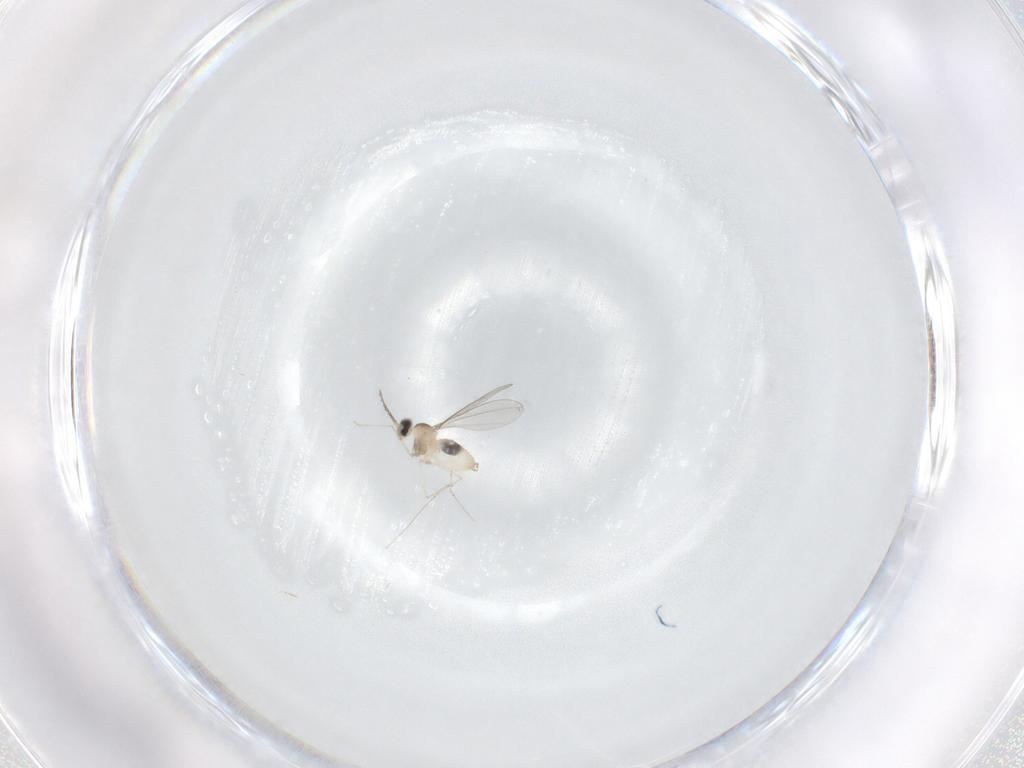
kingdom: Animalia
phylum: Arthropoda
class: Insecta
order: Diptera
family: Cecidomyiidae
